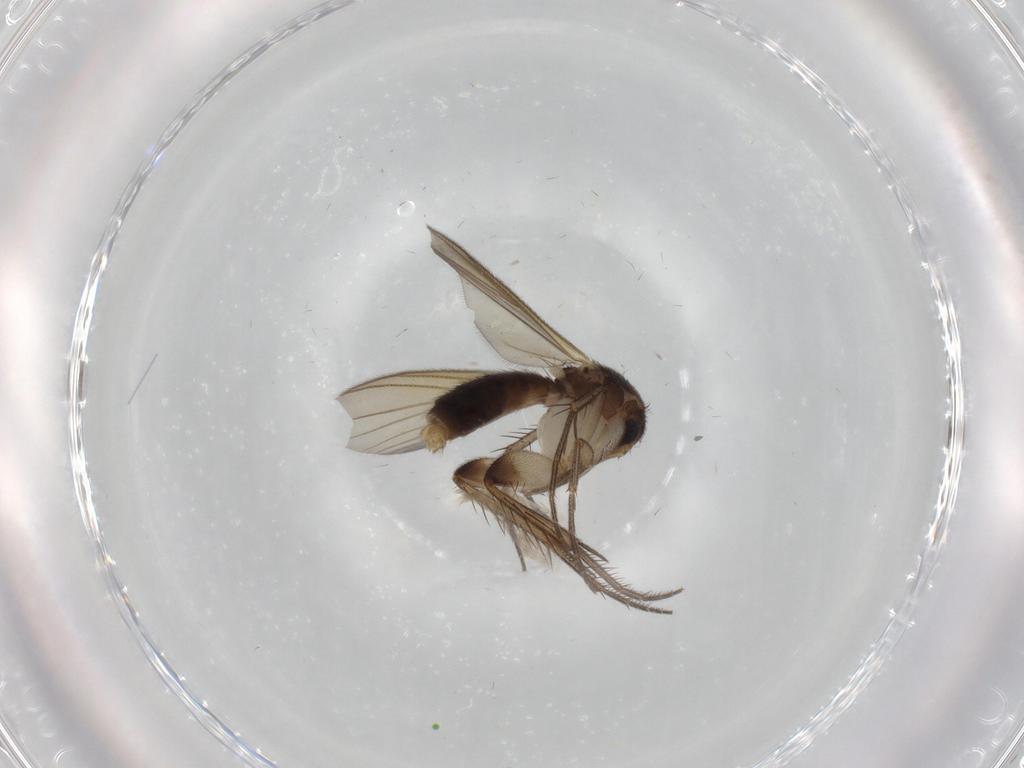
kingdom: Animalia
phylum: Arthropoda
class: Insecta
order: Diptera
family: Mycetophilidae
